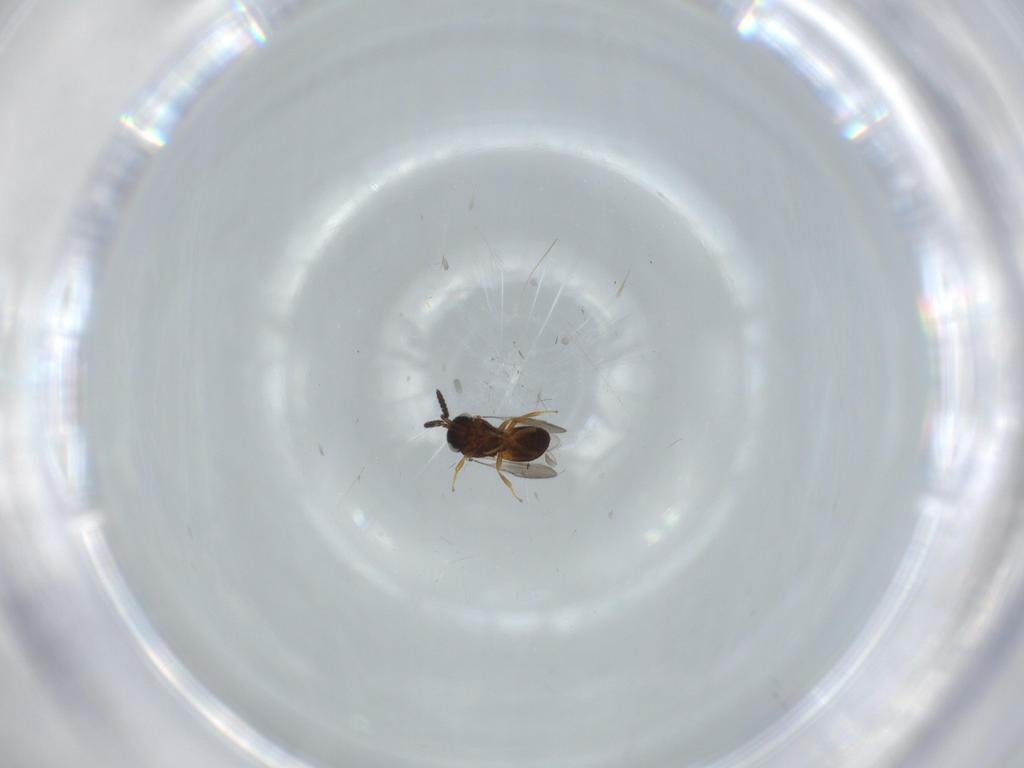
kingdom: Animalia
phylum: Arthropoda
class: Insecta
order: Hymenoptera
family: Scelionidae
